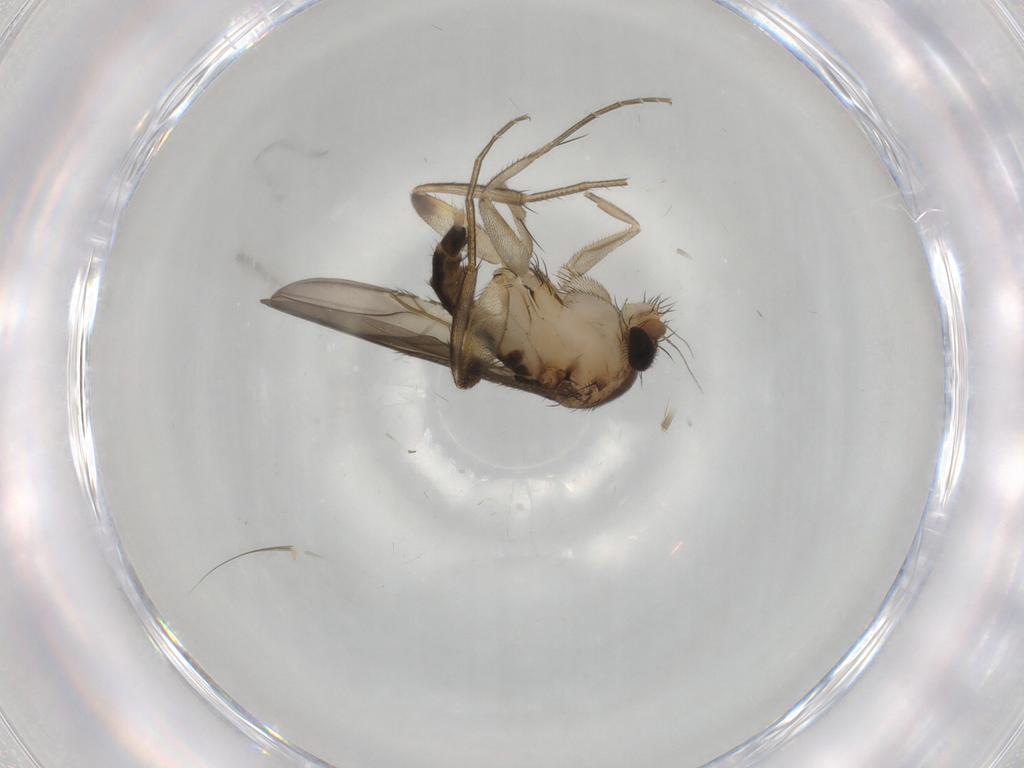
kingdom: Animalia
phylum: Arthropoda
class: Insecta
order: Diptera
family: Phoridae
